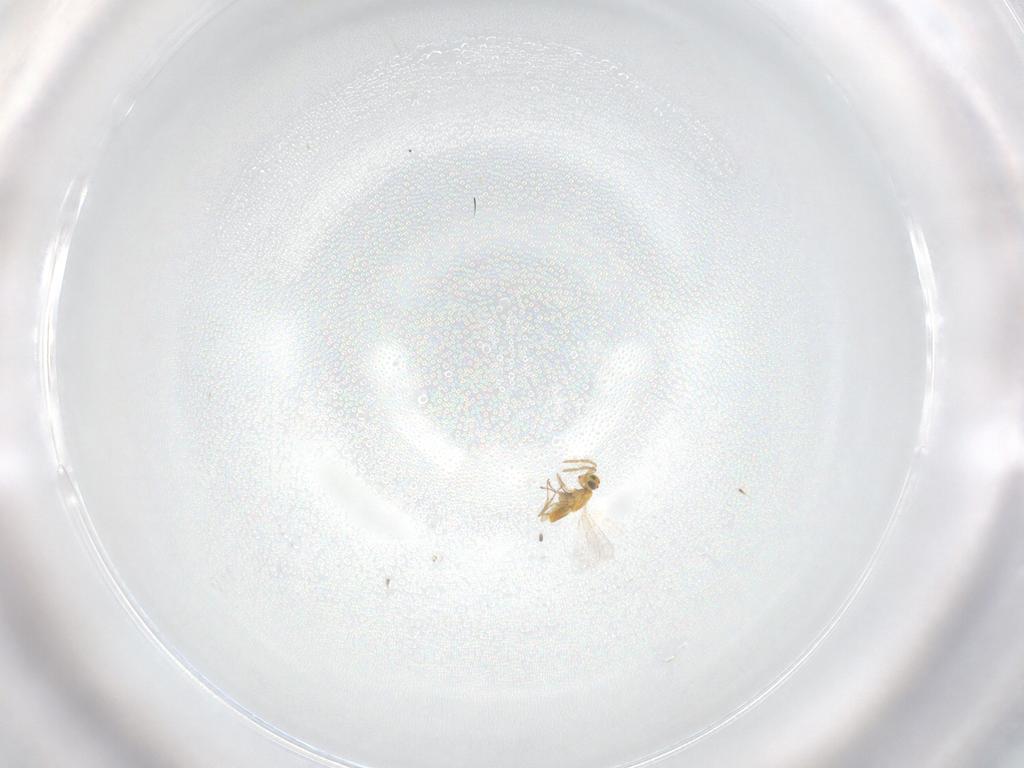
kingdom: Animalia
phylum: Arthropoda
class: Insecta
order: Hymenoptera
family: Aphelinidae
